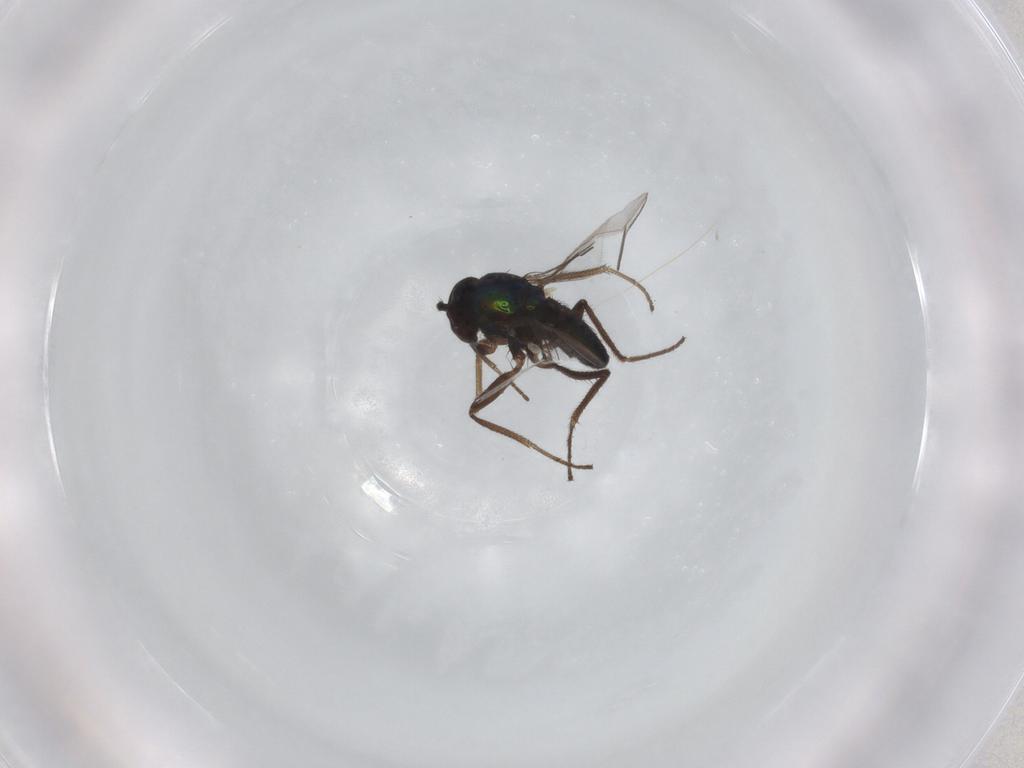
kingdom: Animalia
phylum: Arthropoda
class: Insecta
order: Diptera
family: Dolichopodidae
